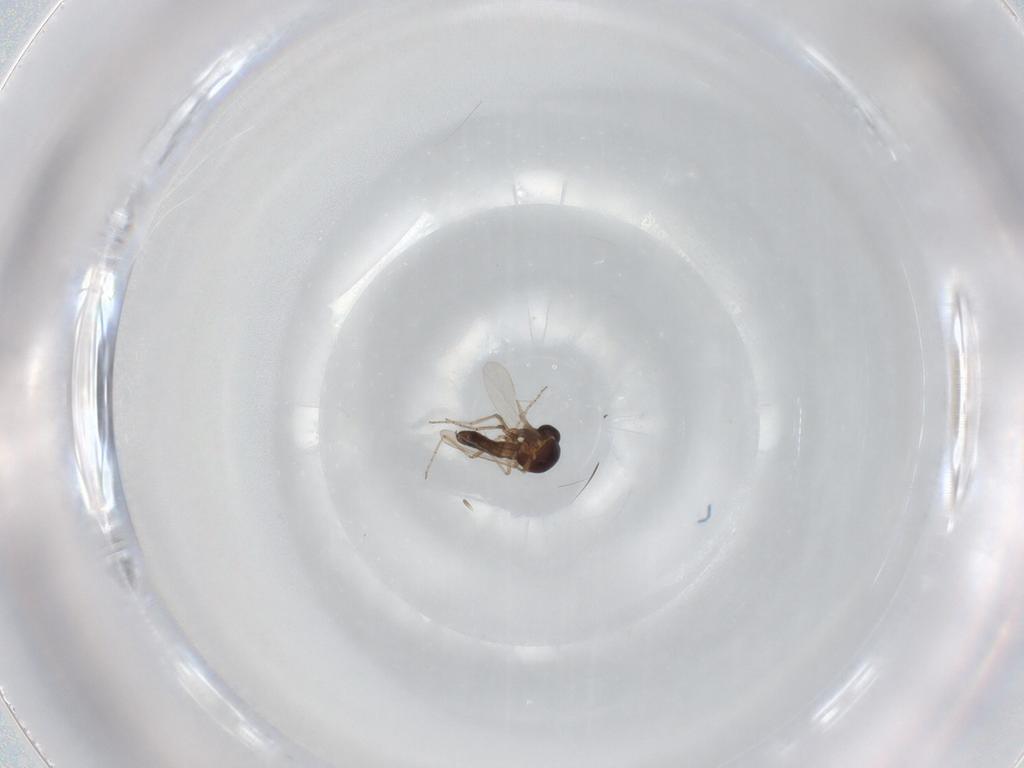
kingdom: Animalia
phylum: Arthropoda
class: Insecta
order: Diptera
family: Ceratopogonidae
